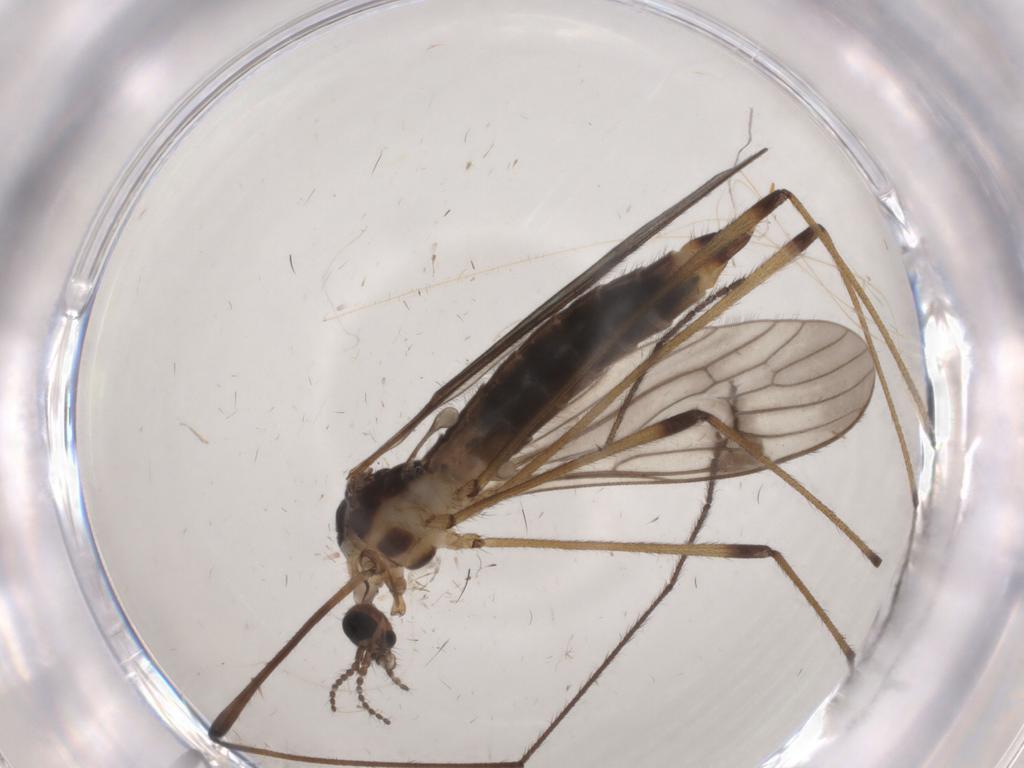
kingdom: Animalia
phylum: Arthropoda
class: Insecta
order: Diptera
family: Limoniidae
